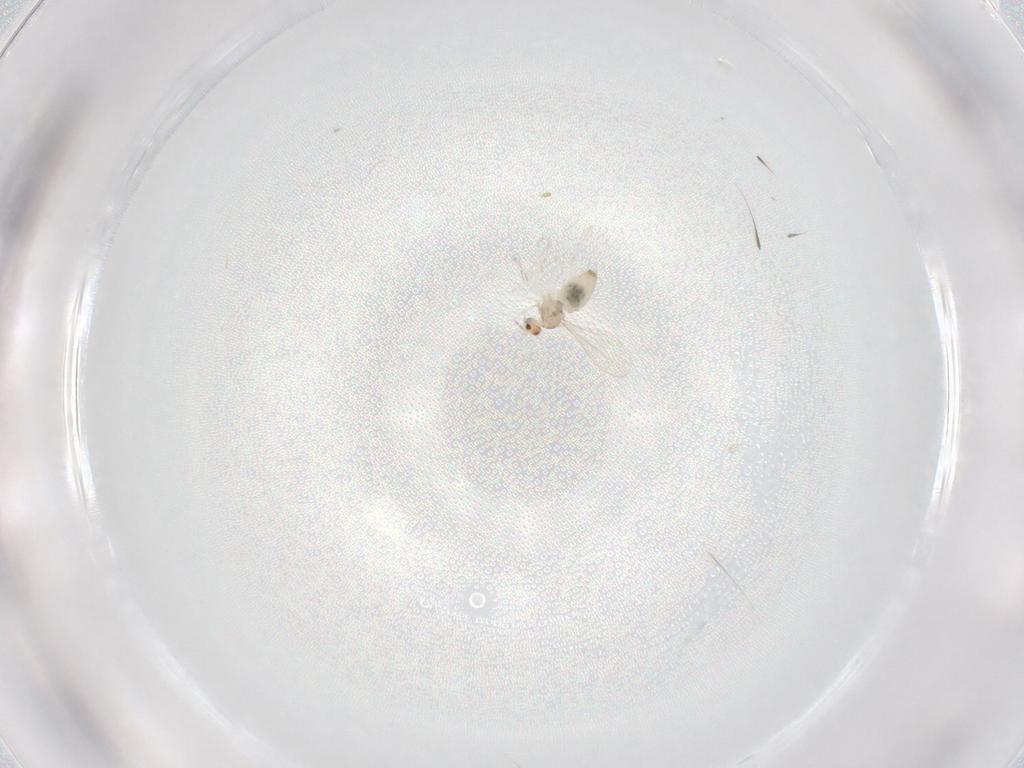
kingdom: Animalia
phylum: Arthropoda
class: Insecta
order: Diptera
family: Cecidomyiidae
